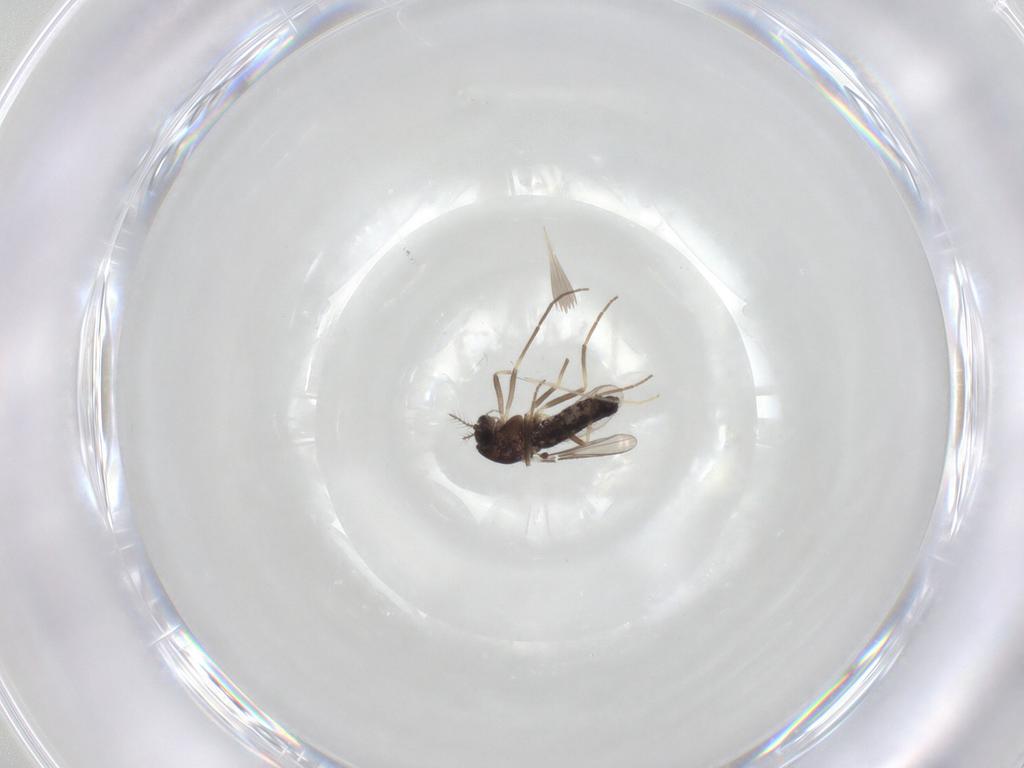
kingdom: Animalia
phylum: Arthropoda
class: Insecta
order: Diptera
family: Chironomidae
